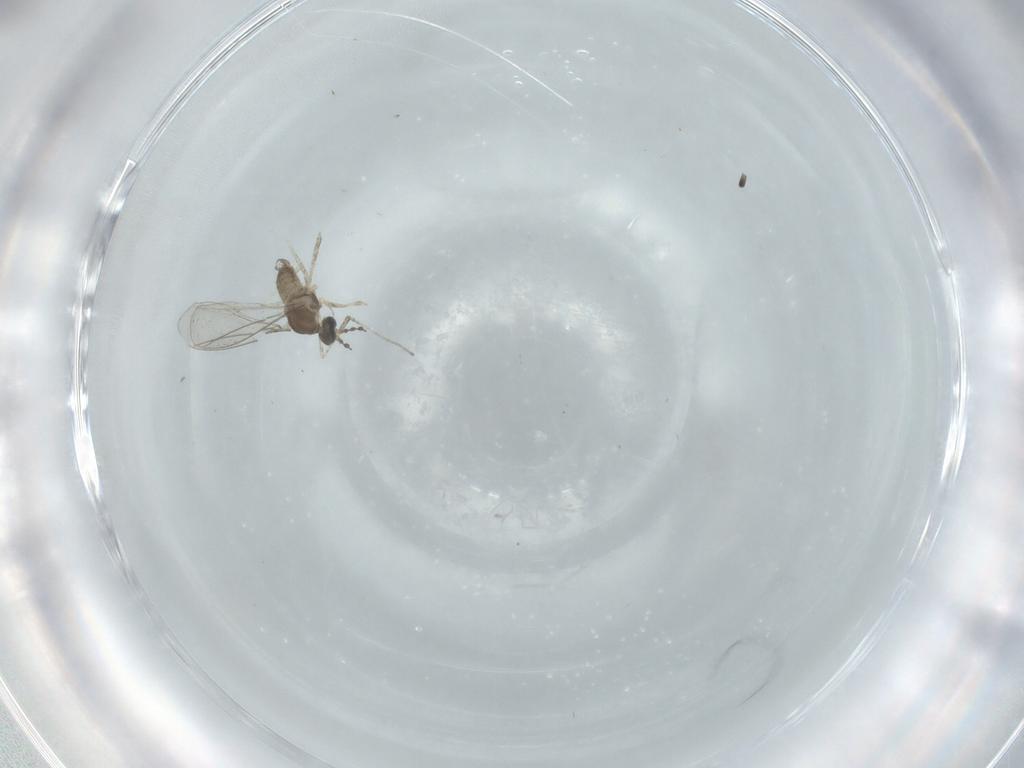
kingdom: Animalia
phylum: Arthropoda
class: Insecta
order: Diptera
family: Cecidomyiidae
